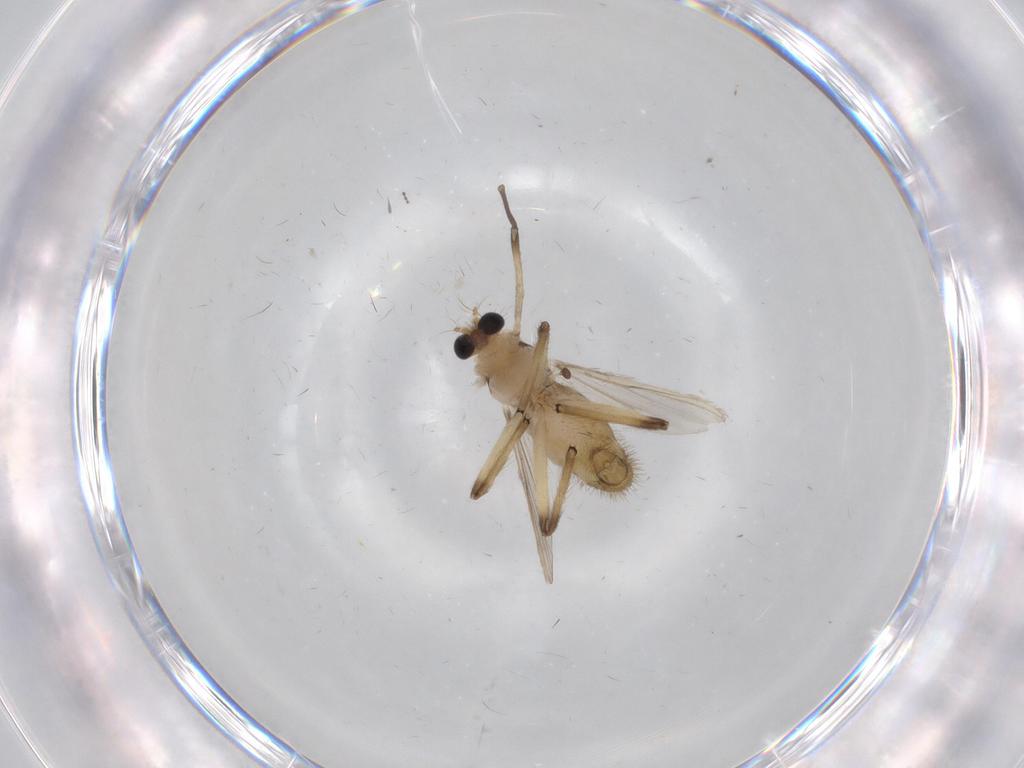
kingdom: Animalia
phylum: Arthropoda
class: Insecta
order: Diptera
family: Chironomidae
